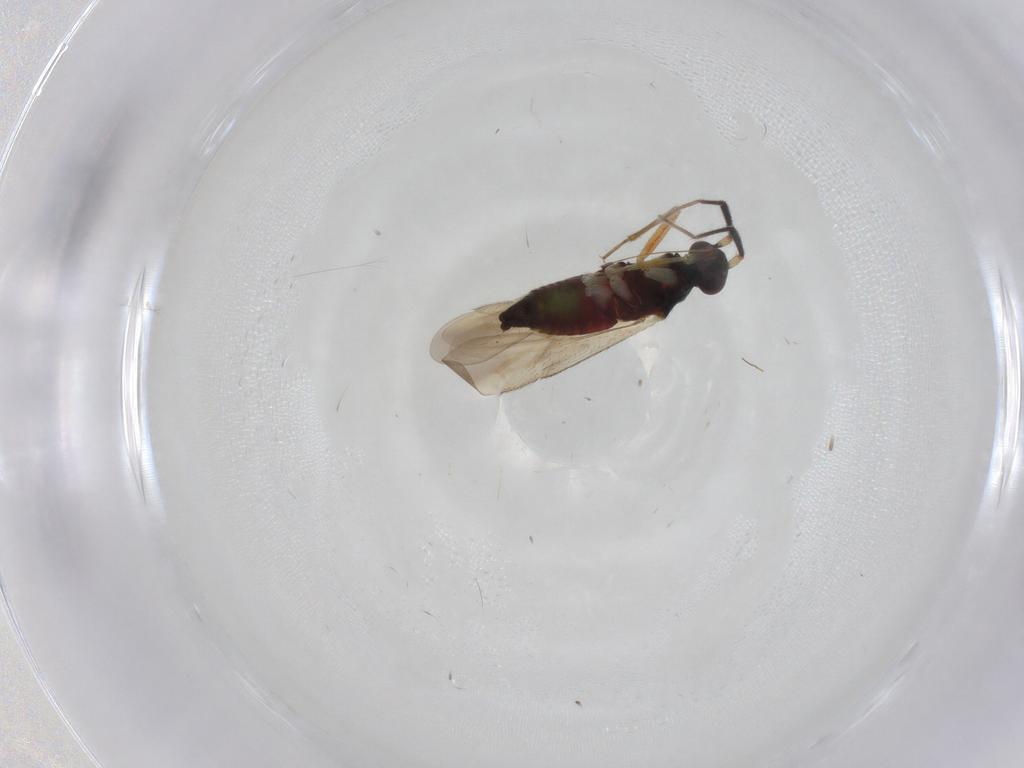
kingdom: Animalia
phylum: Arthropoda
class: Insecta
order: Hemiptera
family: Miridae
